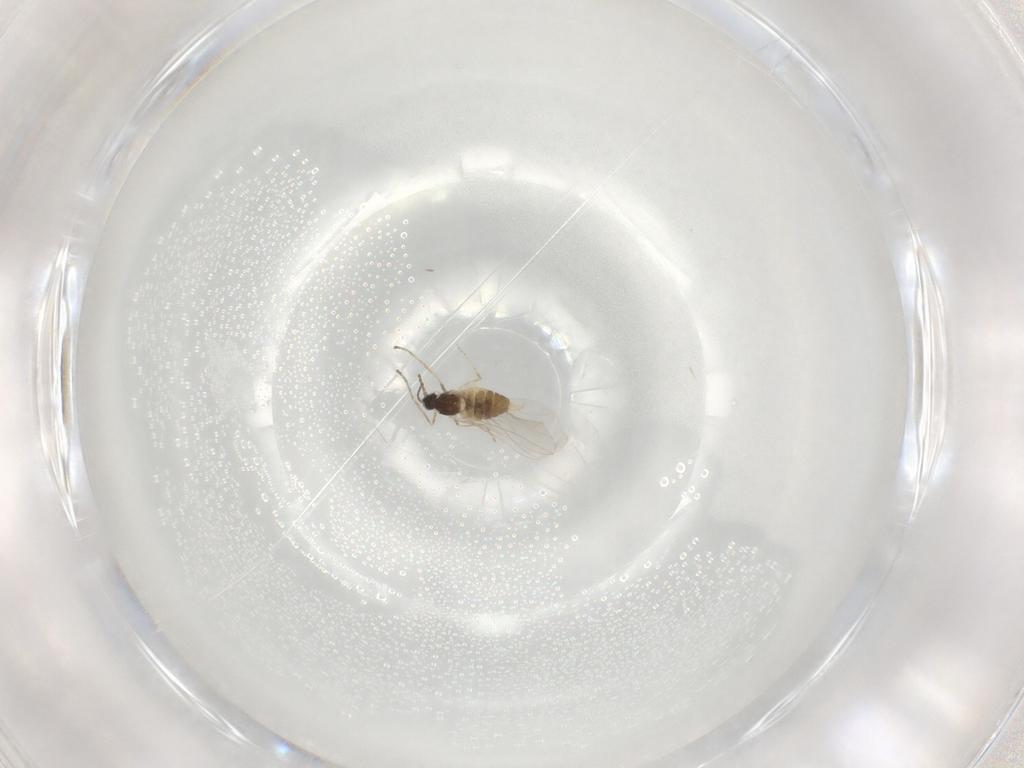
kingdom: Animalia
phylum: Arthropoda
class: Insecta
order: Diptera
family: Cecidomyiidae
